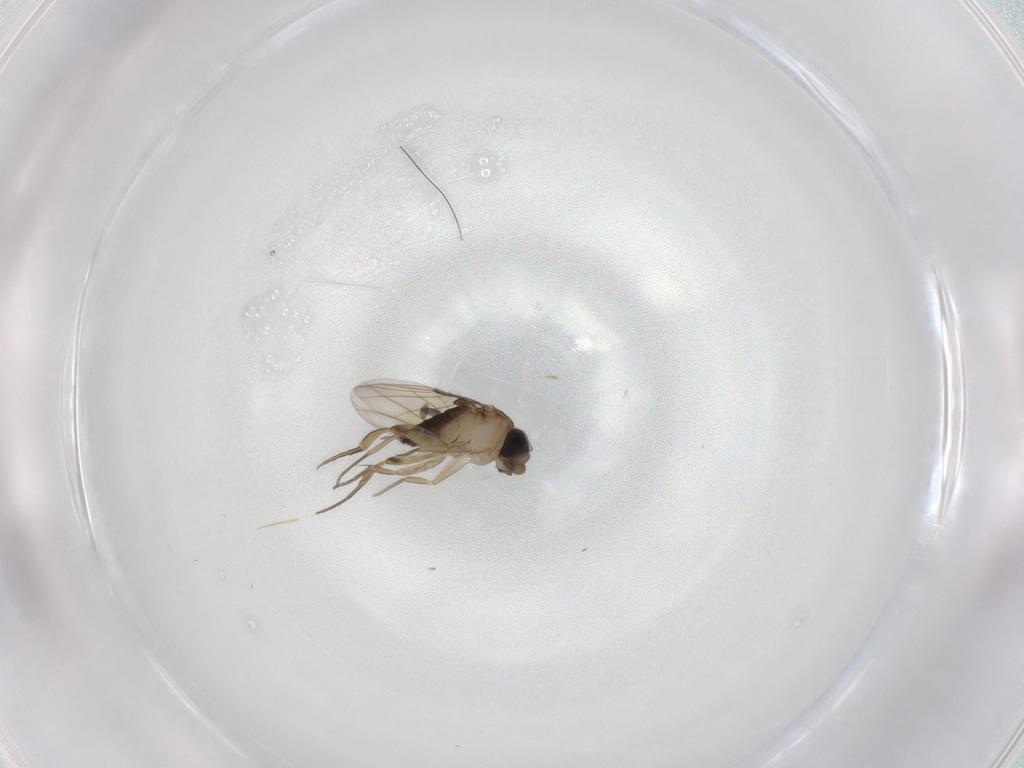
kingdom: Animalia
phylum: Arthropoda
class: Insecta
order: Diptera
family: Sciaridae
